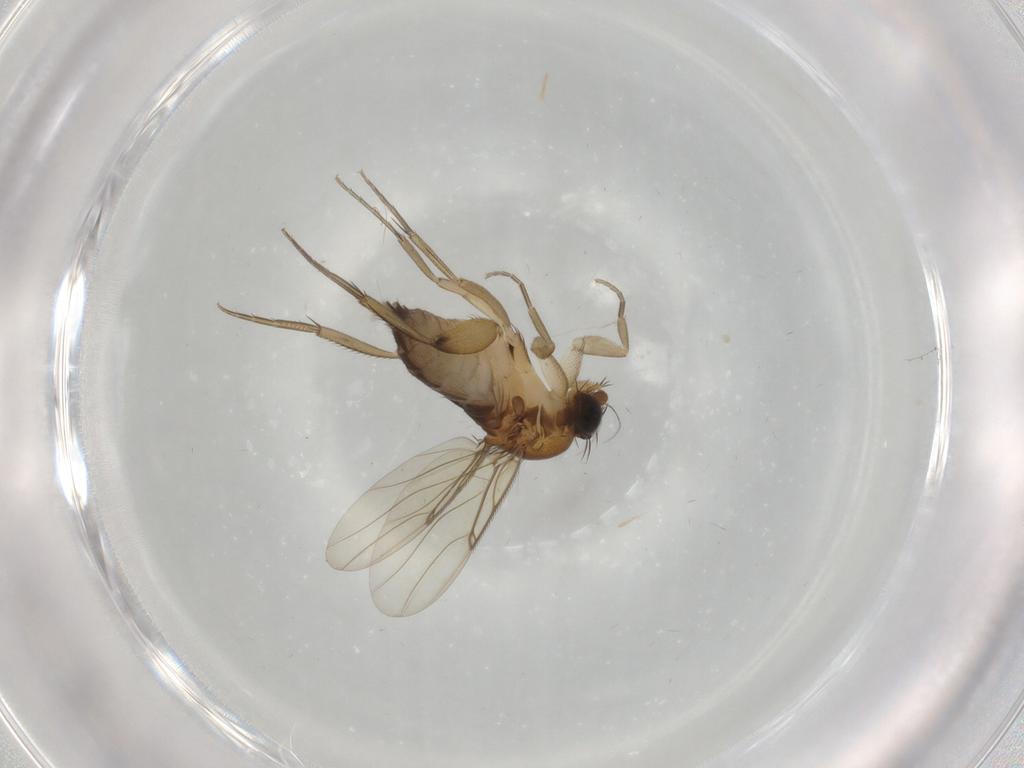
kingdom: Animalia
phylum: Arthropoda
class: Insecta
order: Diptera
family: Phoridae
